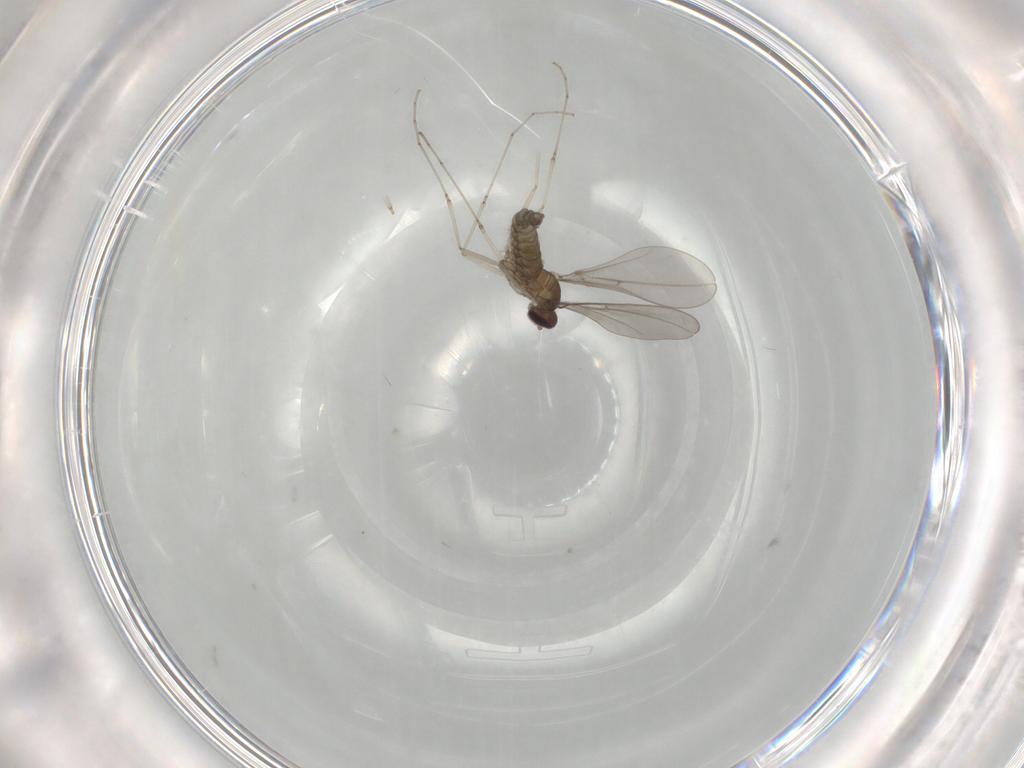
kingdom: Animalia
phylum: Arthropoda
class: Insecta
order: Diptera
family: Cecidomyiidae
